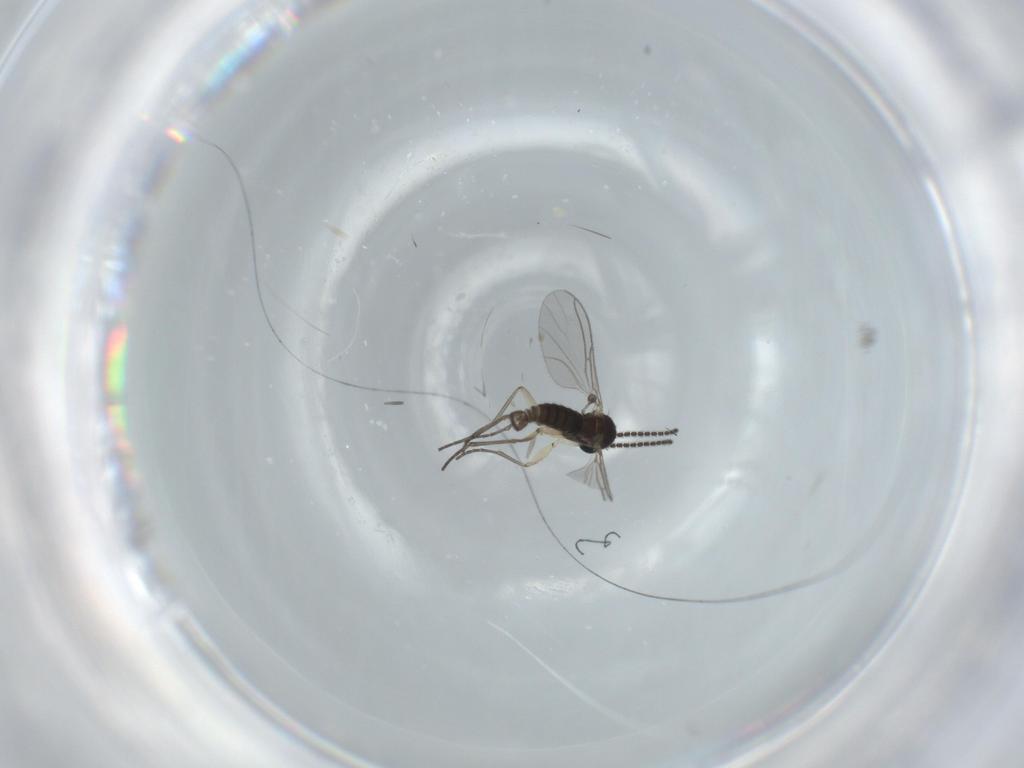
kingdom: Animalia
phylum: Arthropoda
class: Insecta
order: Diptera
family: Sciaridae
